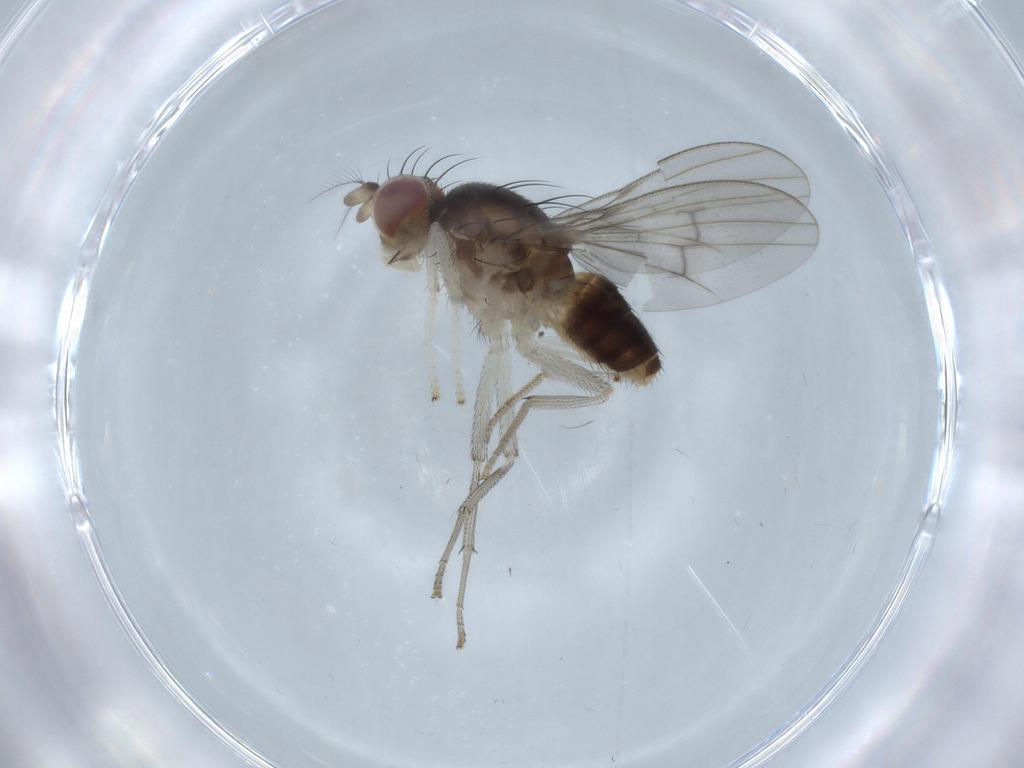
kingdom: Animalia
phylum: Arthropoda
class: Insecta
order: Diptera
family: Lauxaniidae
